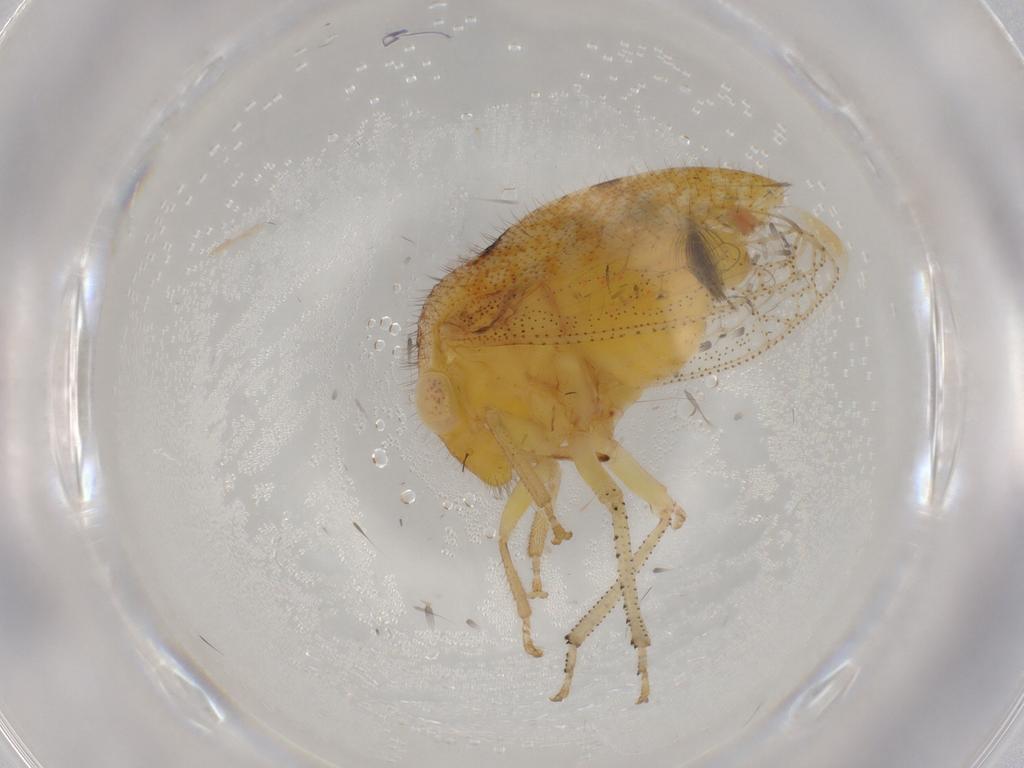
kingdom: Animalia
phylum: Arthropoda
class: Insecta
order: Hemiptera
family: Membracidae
